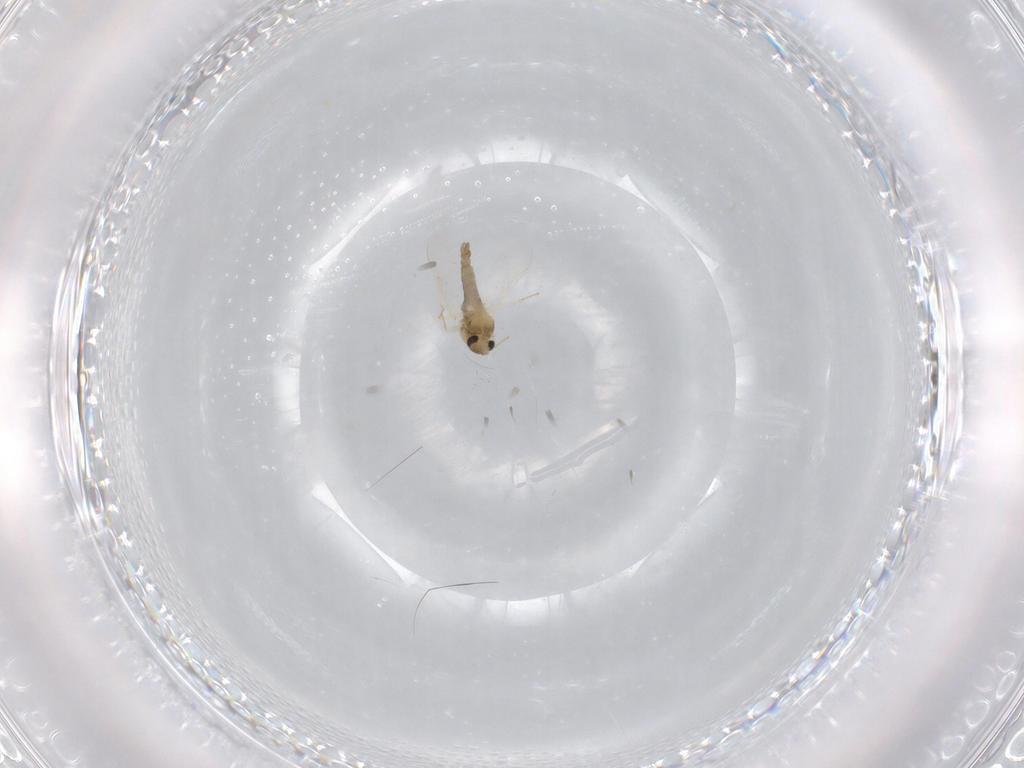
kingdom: Animalia
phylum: Arthropoda
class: Insecta
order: Diptera
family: Chironomidae
